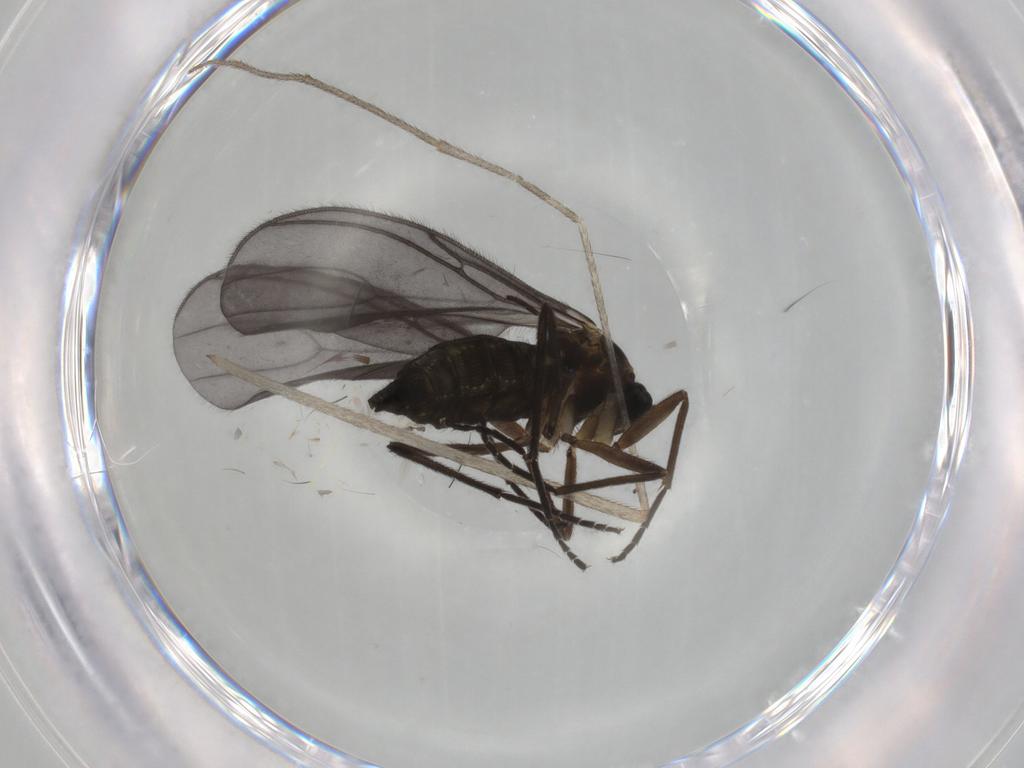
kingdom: Animalia
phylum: Arthropoda
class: Insecta
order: Diptera
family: Sciaridae
